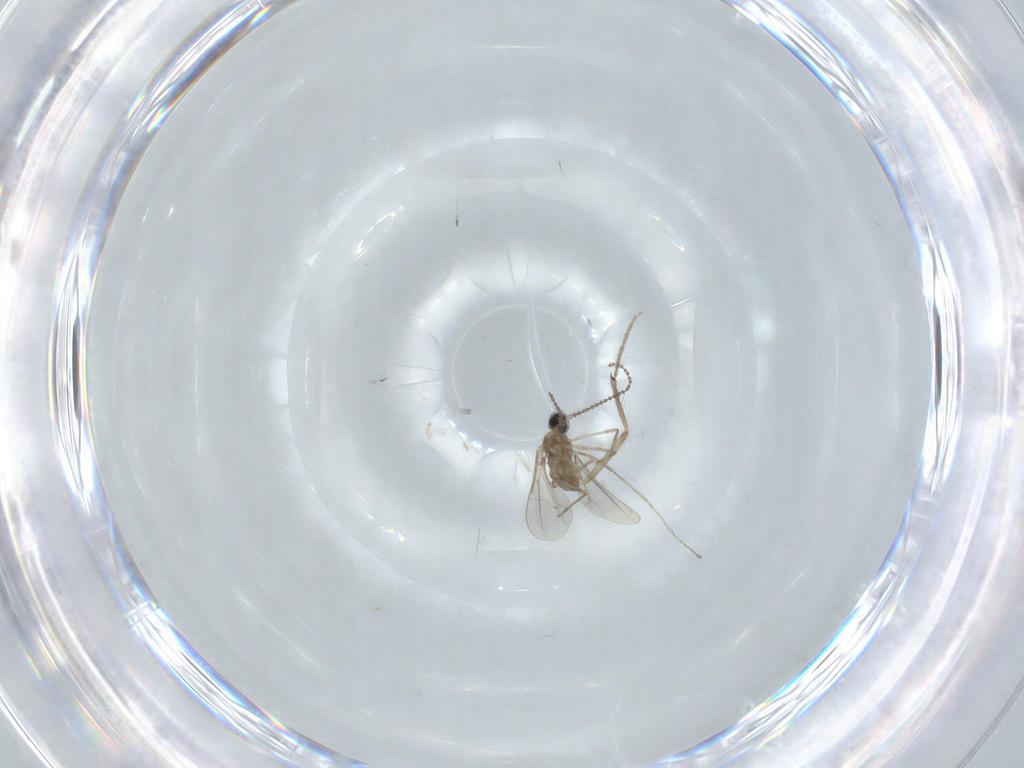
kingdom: Animalia
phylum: Arthropoda
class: Insecta
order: Diptera
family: Cecidomyiidae
